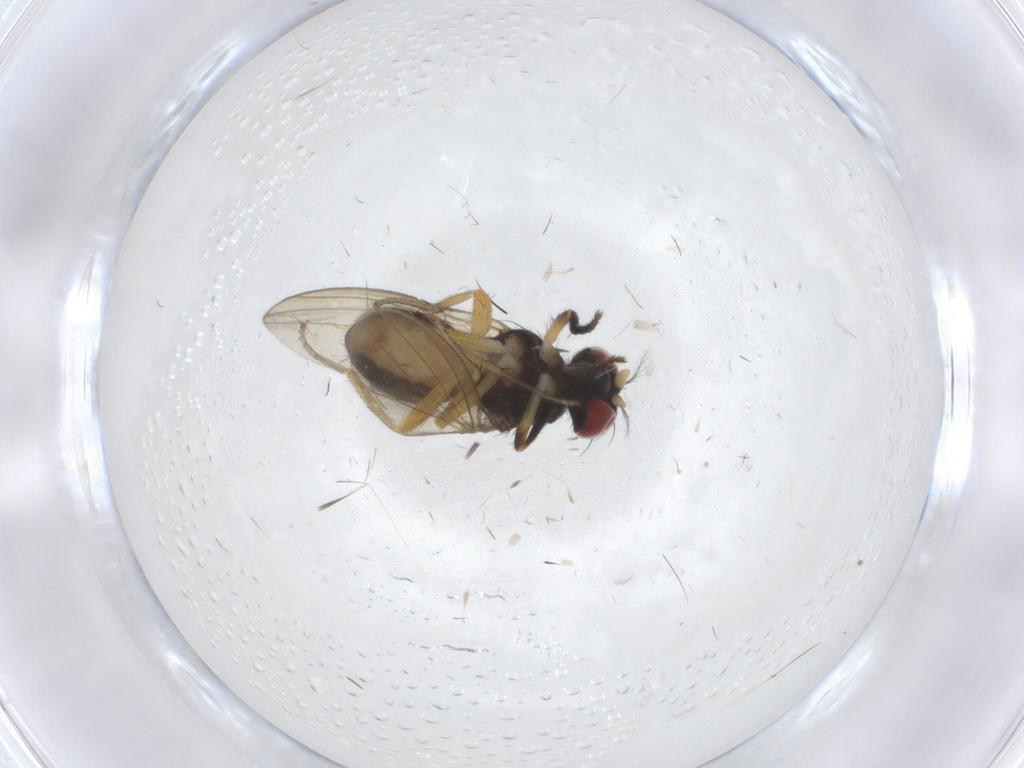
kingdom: Animalia
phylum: Arthropoda
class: Insecta
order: Diptera
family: Lauxaniidae
